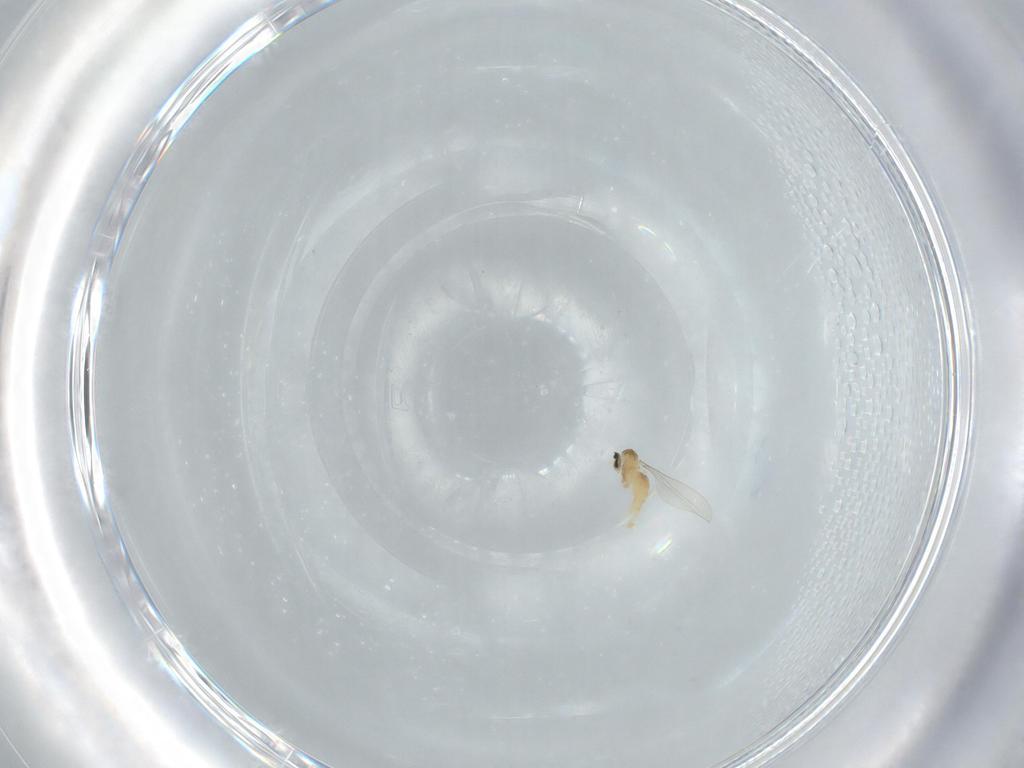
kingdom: Animalia
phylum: Arthropoda
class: Insecta
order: Diptera
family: Cecidomyiidae
